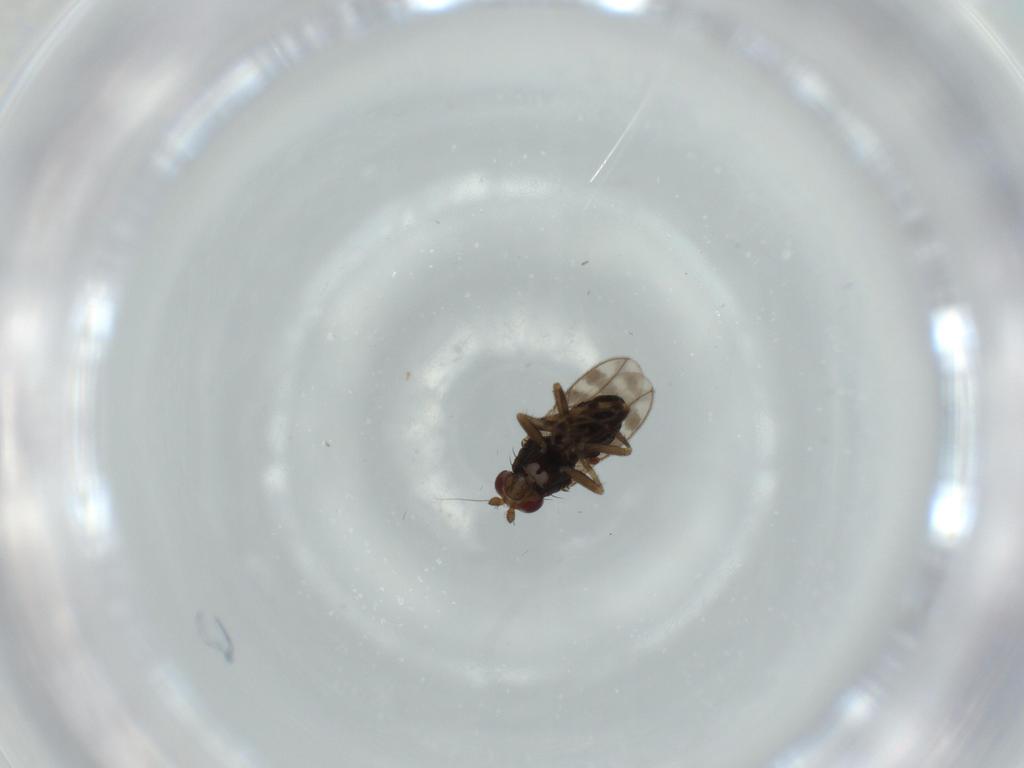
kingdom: Animalia
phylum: Arthropoda
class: Insecta
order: Diptera
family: Sphaeroceridae
